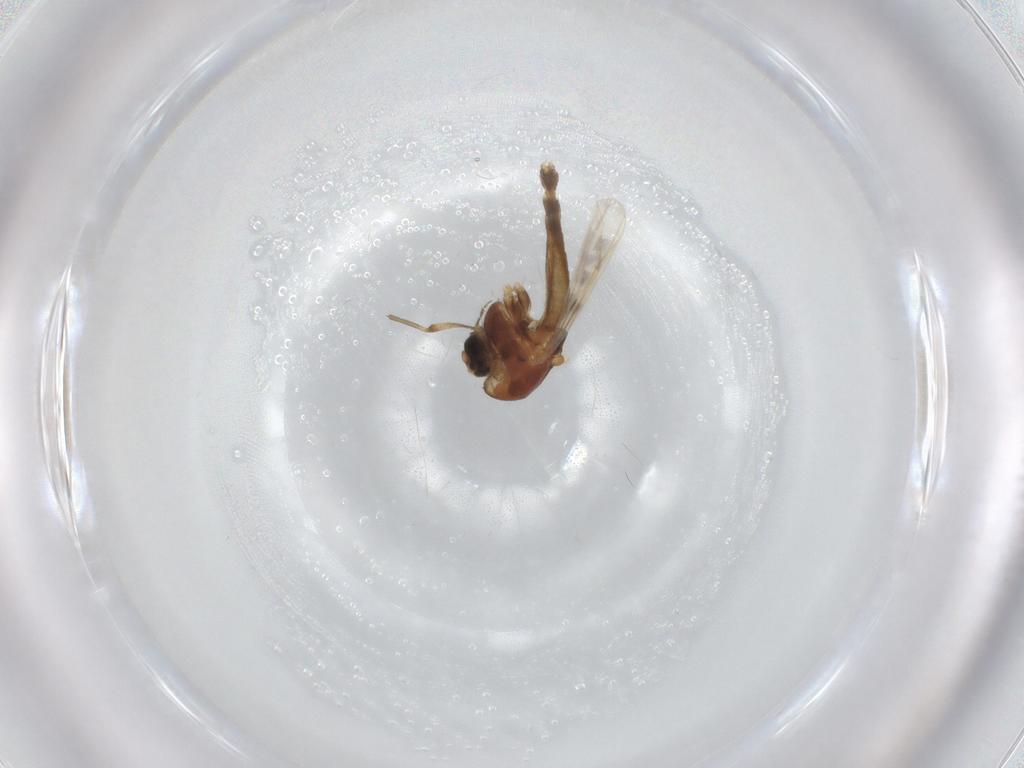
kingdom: Animalia
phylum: Arthropoda
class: Insecta
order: Diptera
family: Chironomidae
